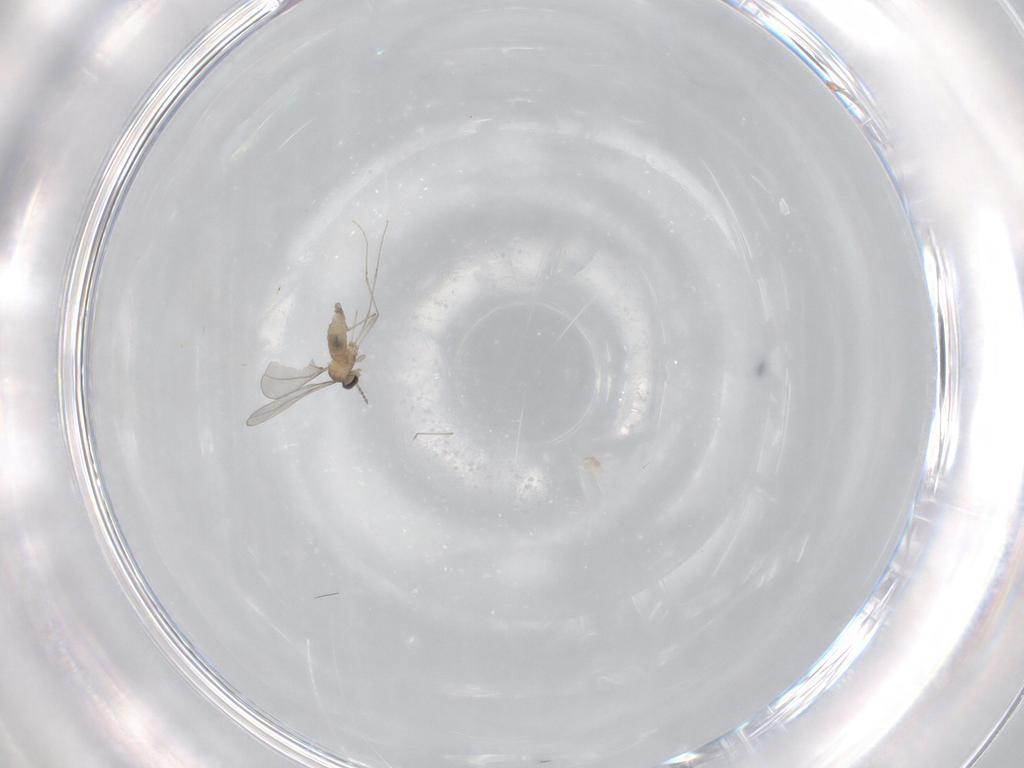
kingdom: Animalia
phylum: Arthropoda
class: Insecta
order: Diptera
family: Cecidomyiidae
